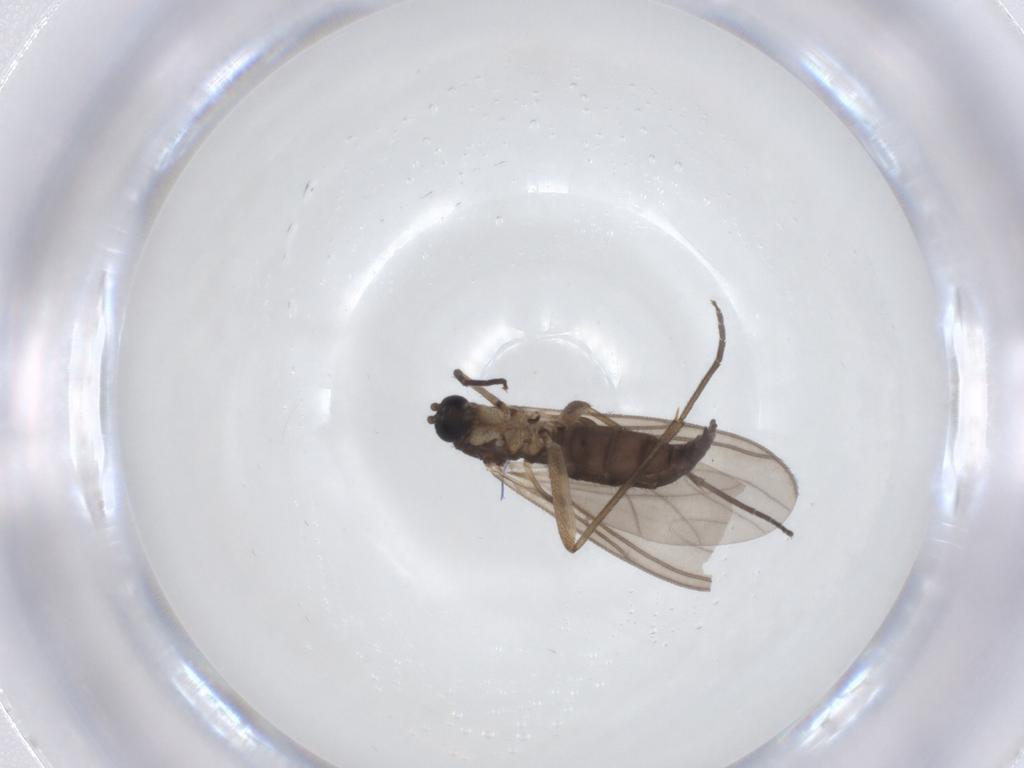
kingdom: Animalia
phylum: Arthropoda
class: Insecta
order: Diptera
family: Sciaridae
